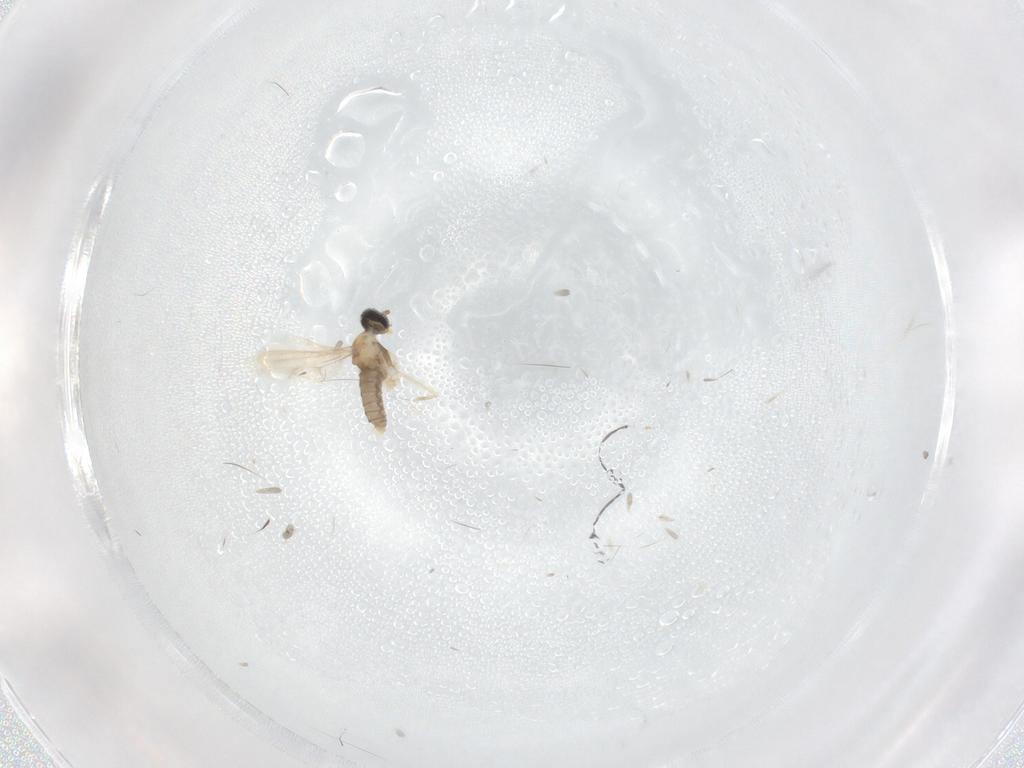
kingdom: Animalia
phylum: Arthropoda
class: Insecta
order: Diptera
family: Cecidomyiidae
